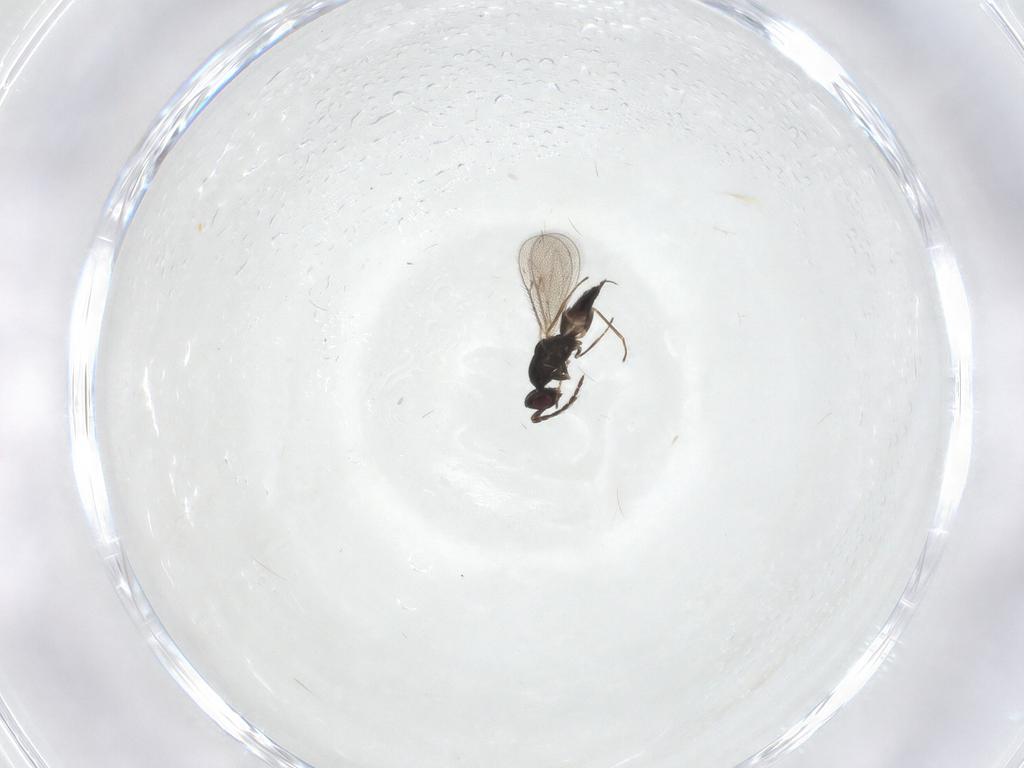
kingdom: Animalia
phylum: Arthropoda
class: Insecta
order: Hymenoptera
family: Eulophidae
